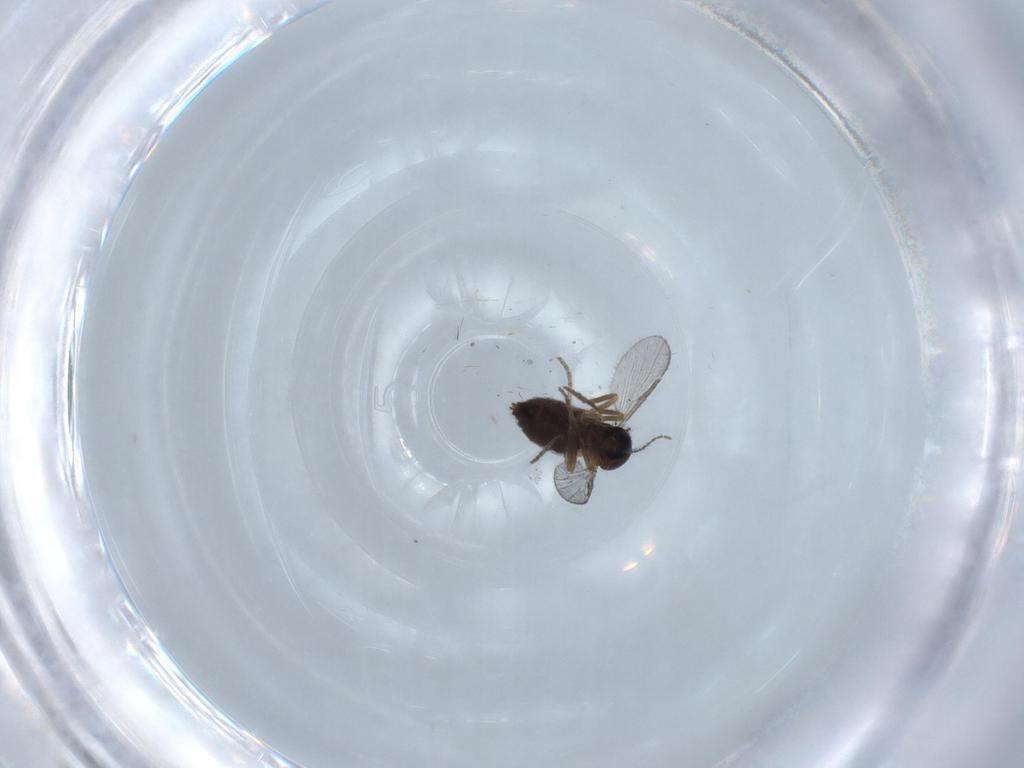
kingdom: Animalia
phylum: Arthropoda
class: Insecta
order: Diptera
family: Ceratopogonidae
